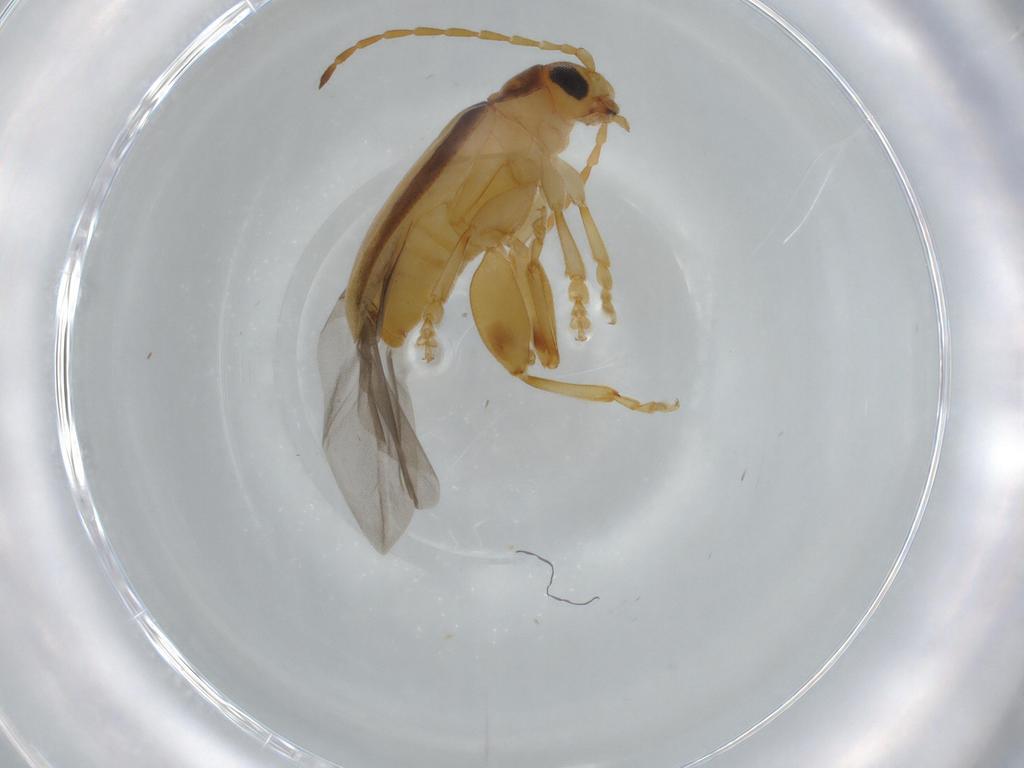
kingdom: Animalia
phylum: Arthropoda
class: Insecta
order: Coleoptera
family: Chrysomelidae
